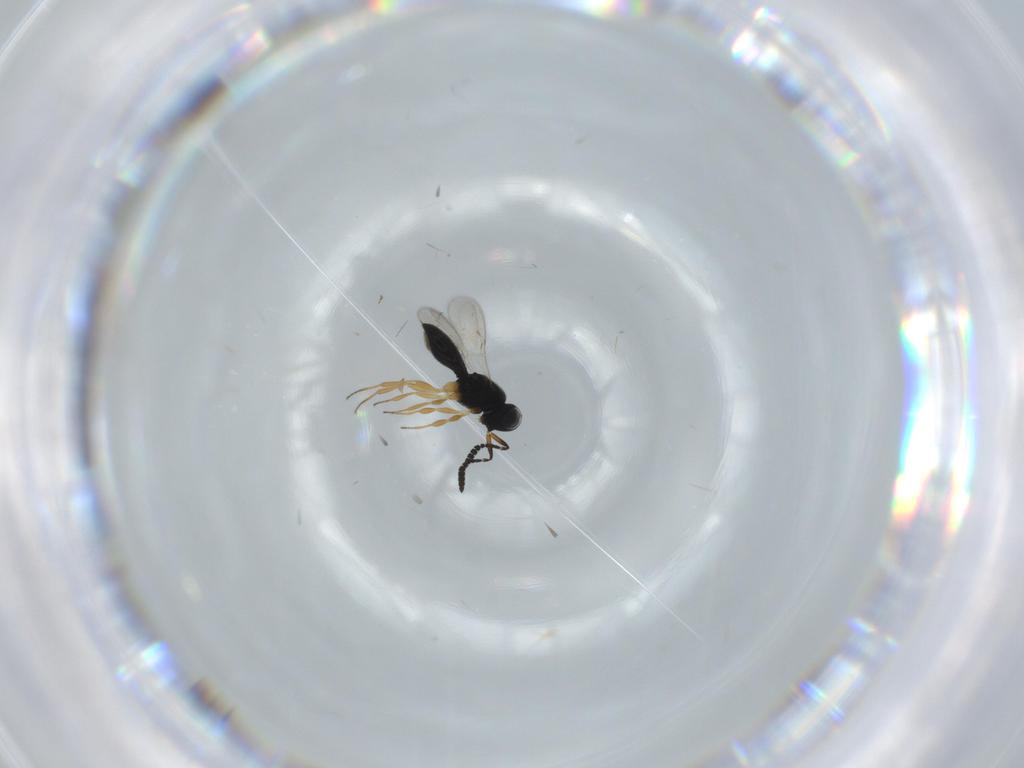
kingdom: Animalia
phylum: Arthropoda
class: Insecta
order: Hymenoptera
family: Scelionidae
